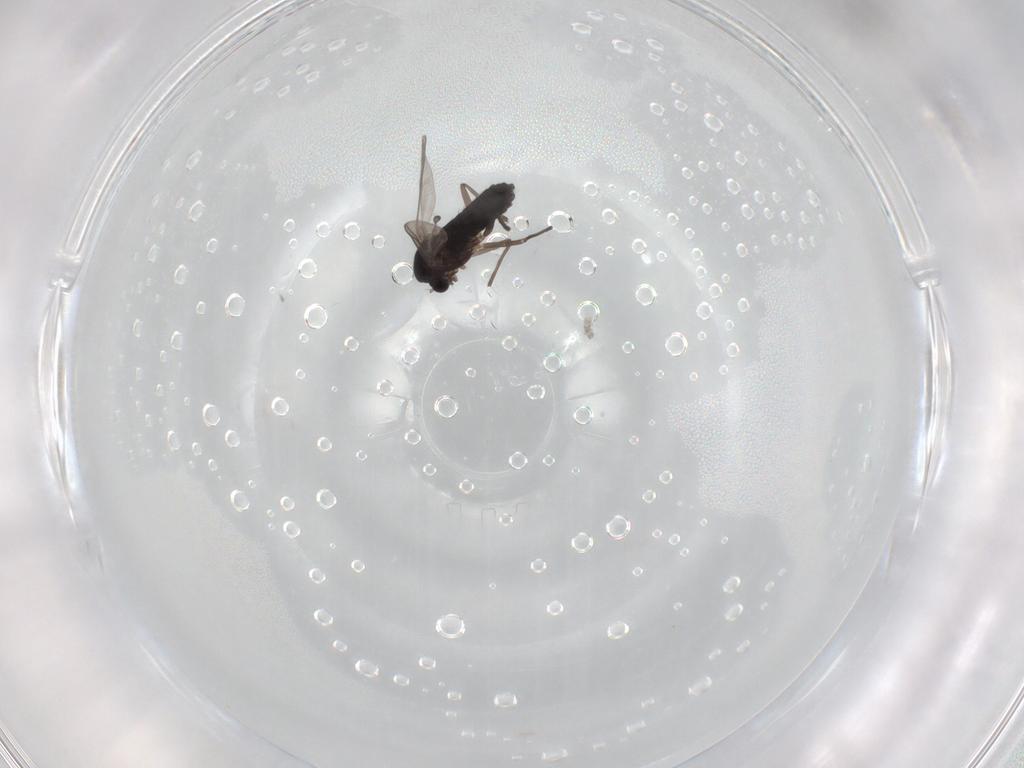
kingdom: Animalia
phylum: Arthropoda
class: Insecta
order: Diptera
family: Chironomidae
